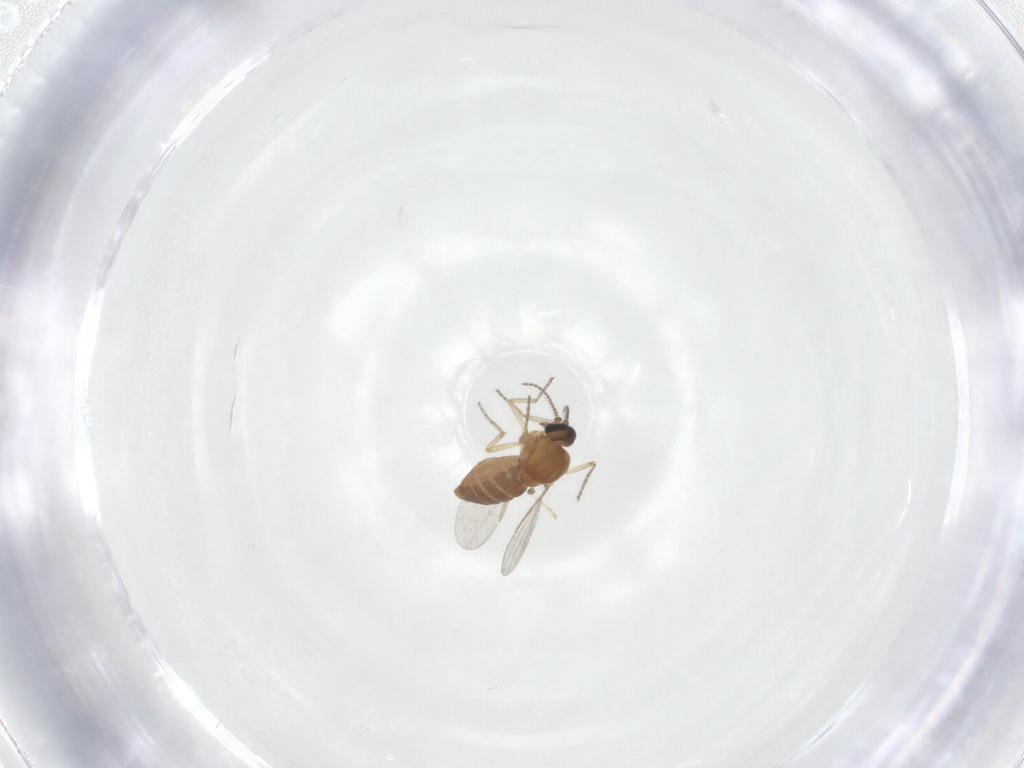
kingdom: Animalia
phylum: Arthropoda
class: Insecta
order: Diptera
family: Ceratopogonidae
